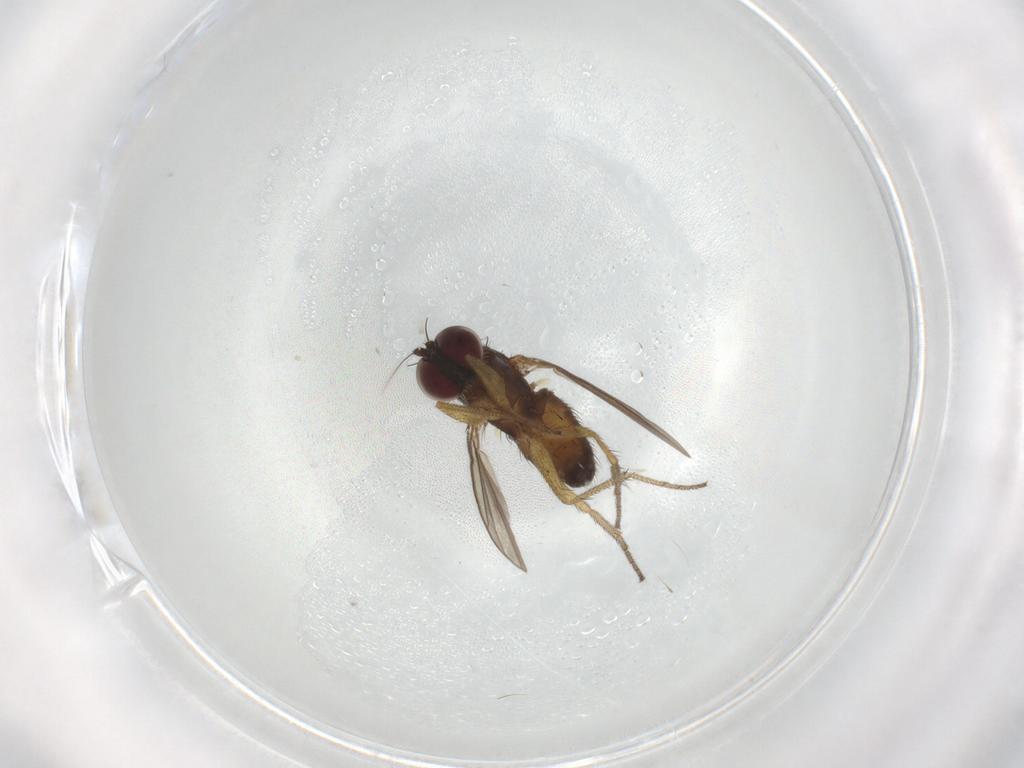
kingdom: Animalia
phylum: Arthropoda
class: Insecta
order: Diptera
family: Dolichopodidae
